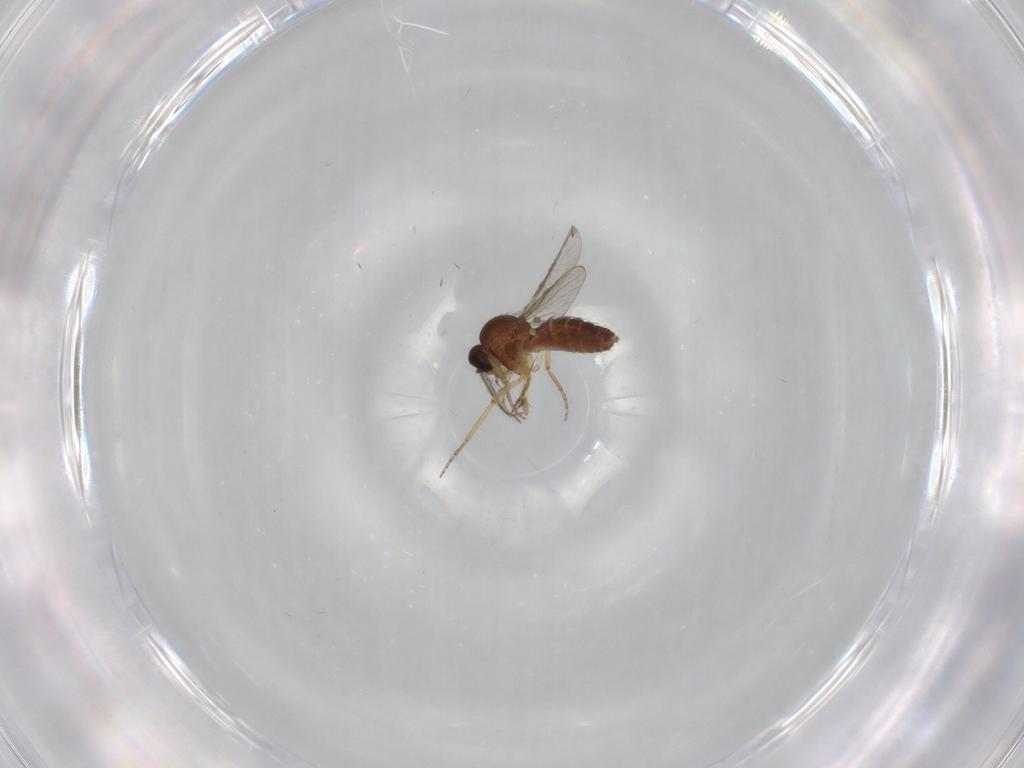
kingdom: Animalia
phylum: Arthropoda
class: Insecta
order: Diptera
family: Ceratopogonidae
